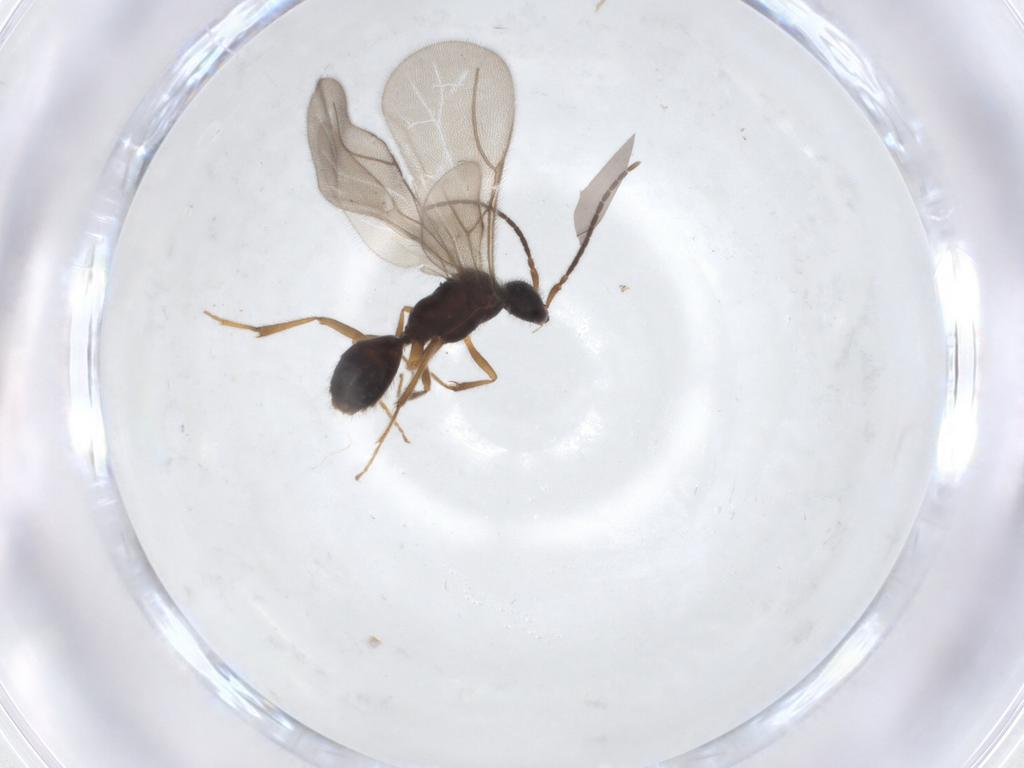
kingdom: Animalia
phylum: Arthropoda
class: Insecta
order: Hymenoptera
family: Bethylidae
